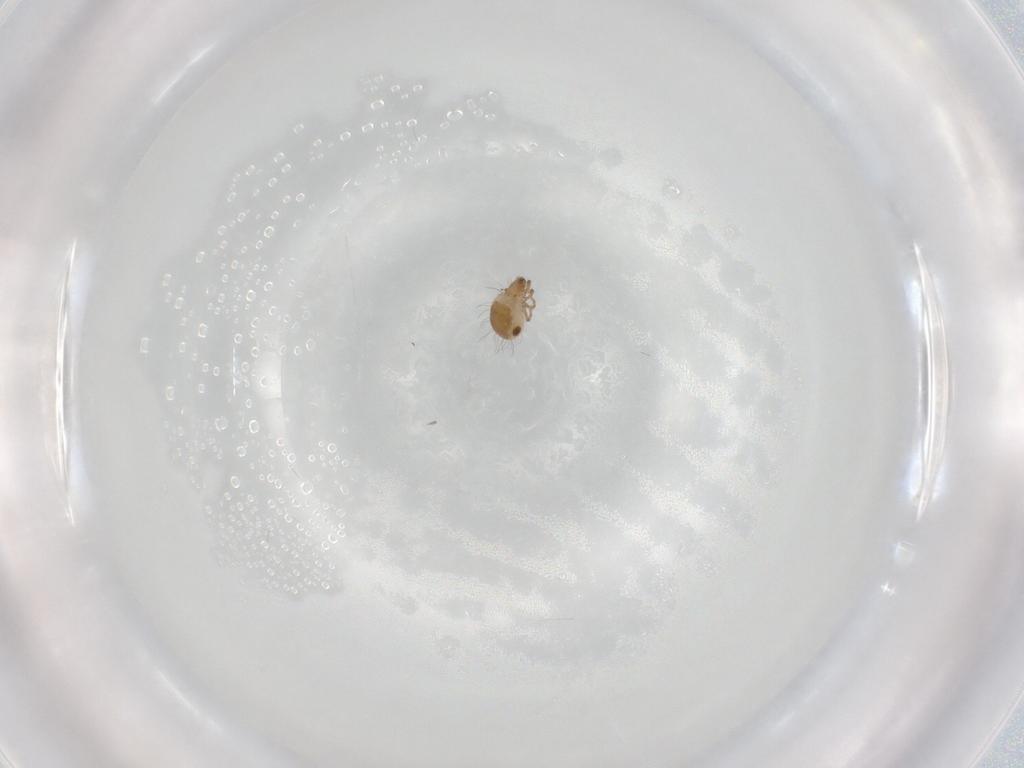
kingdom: Animalia
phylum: Arthropoda
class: Arachnida
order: Sarcoptiformes
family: Ceratozetidae
